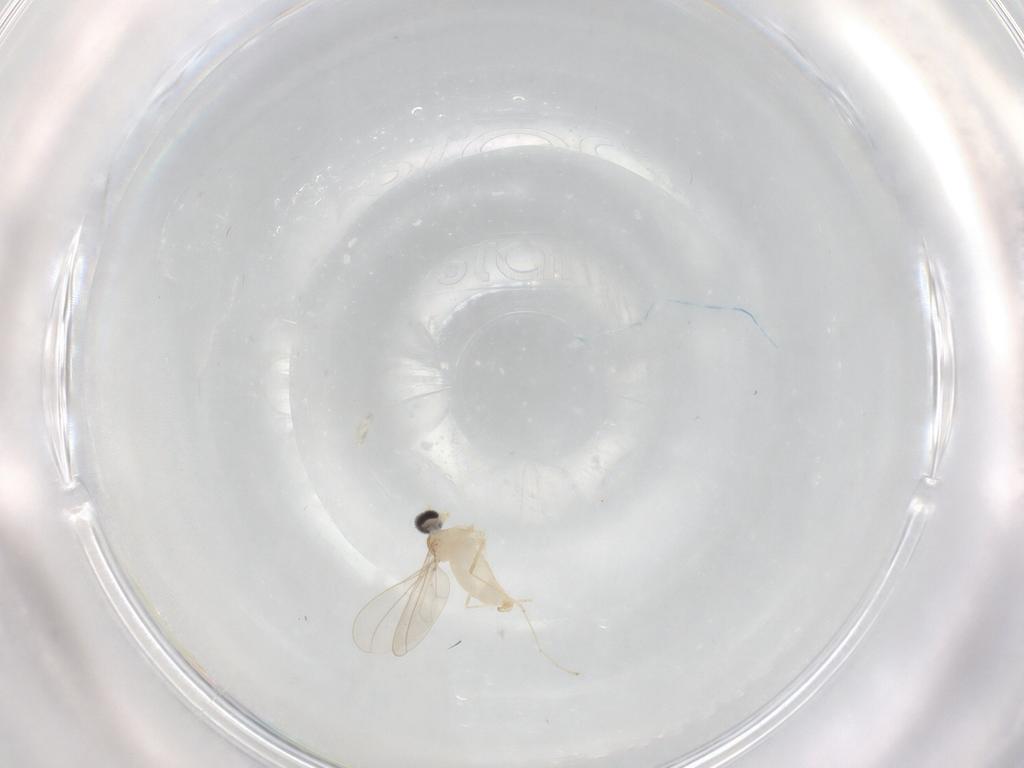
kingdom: Animalia
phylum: Arthropoda
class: Insecta
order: Diptera
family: Cecidomyiidae
